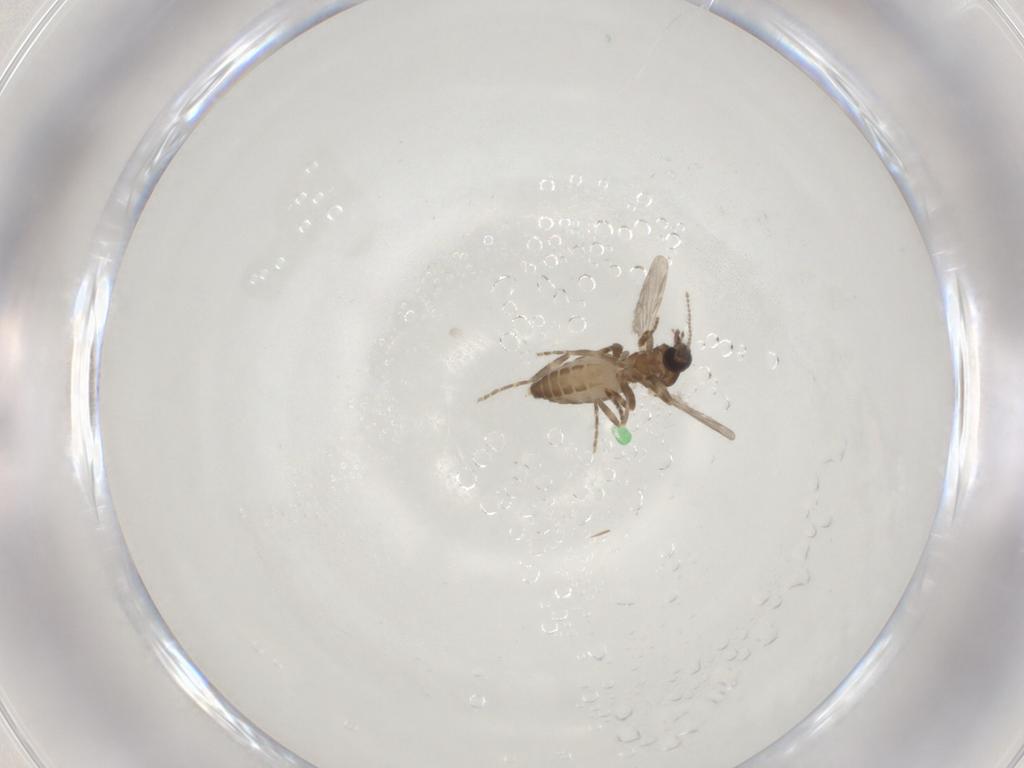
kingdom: Animalia
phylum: Arthropoda
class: Insecta
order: Diptera
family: Ceratopogonidae
